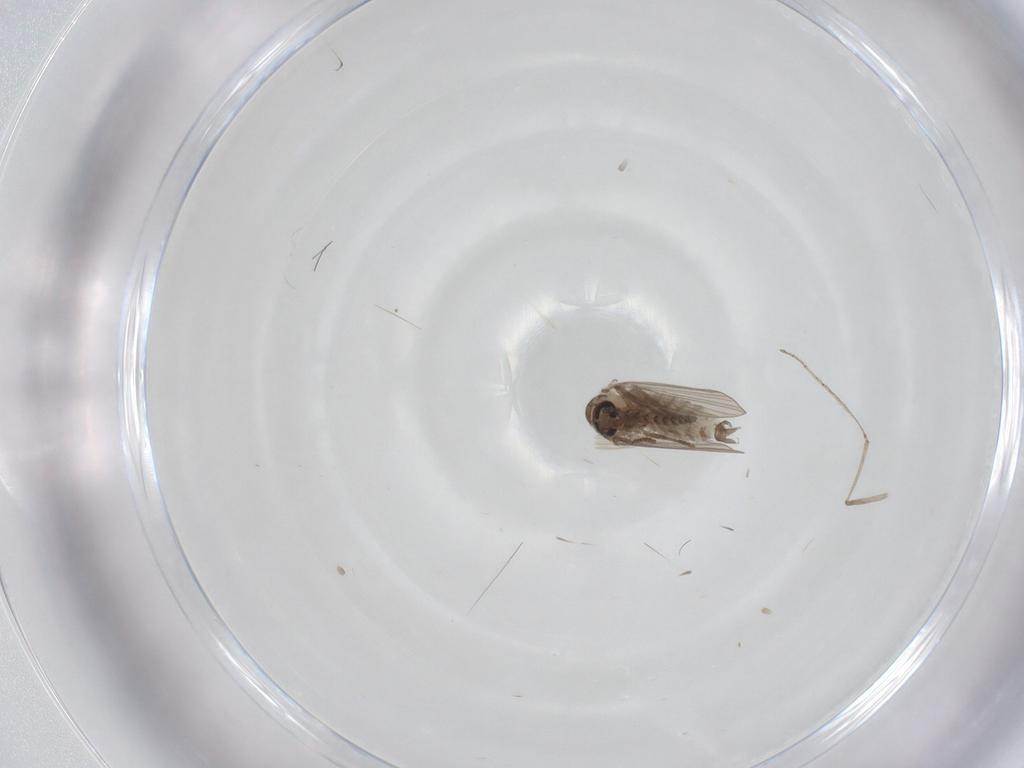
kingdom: Animalia
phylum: Arthropoda
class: Insecta
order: Diptera
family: Psychodidae
